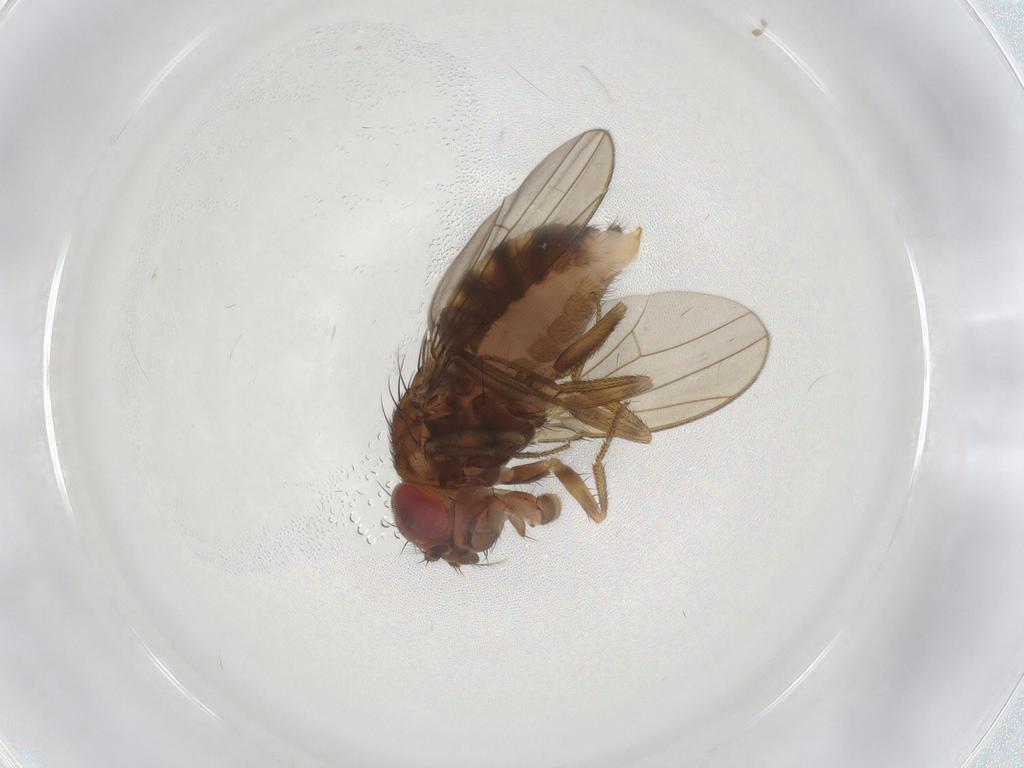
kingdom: Animalia
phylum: Arthropoda
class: Insecta
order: Diptera
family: Drosophilidae
